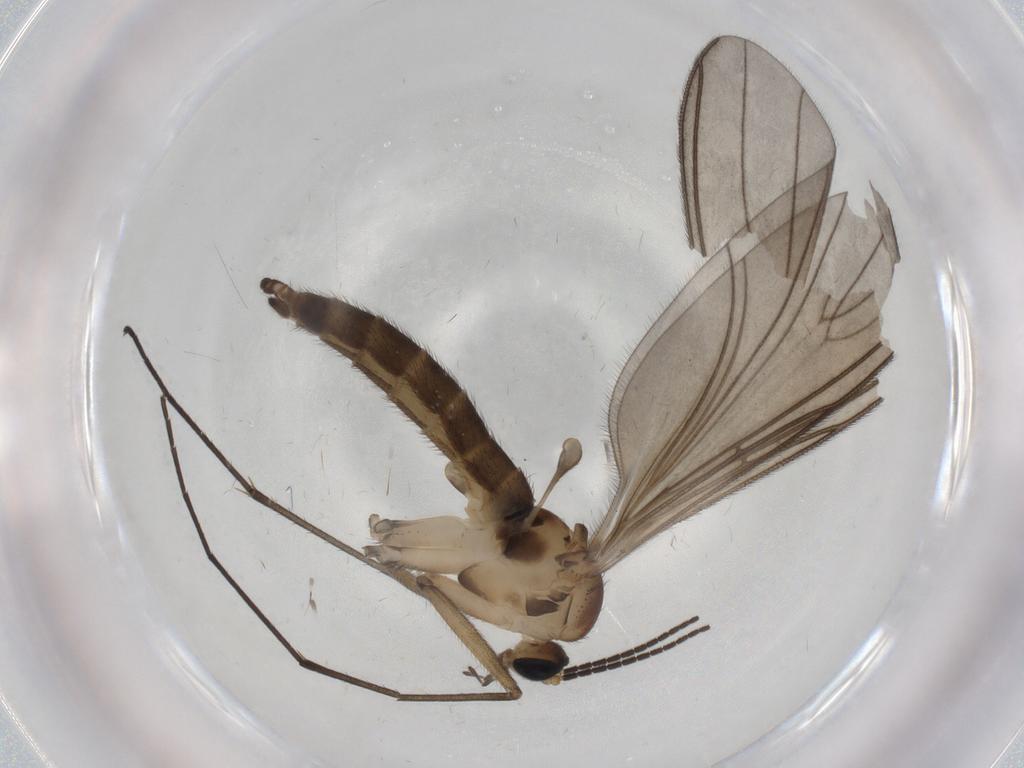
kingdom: Animalia
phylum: Arthropoda
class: Insecta
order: Diptera
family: Sciaridae
